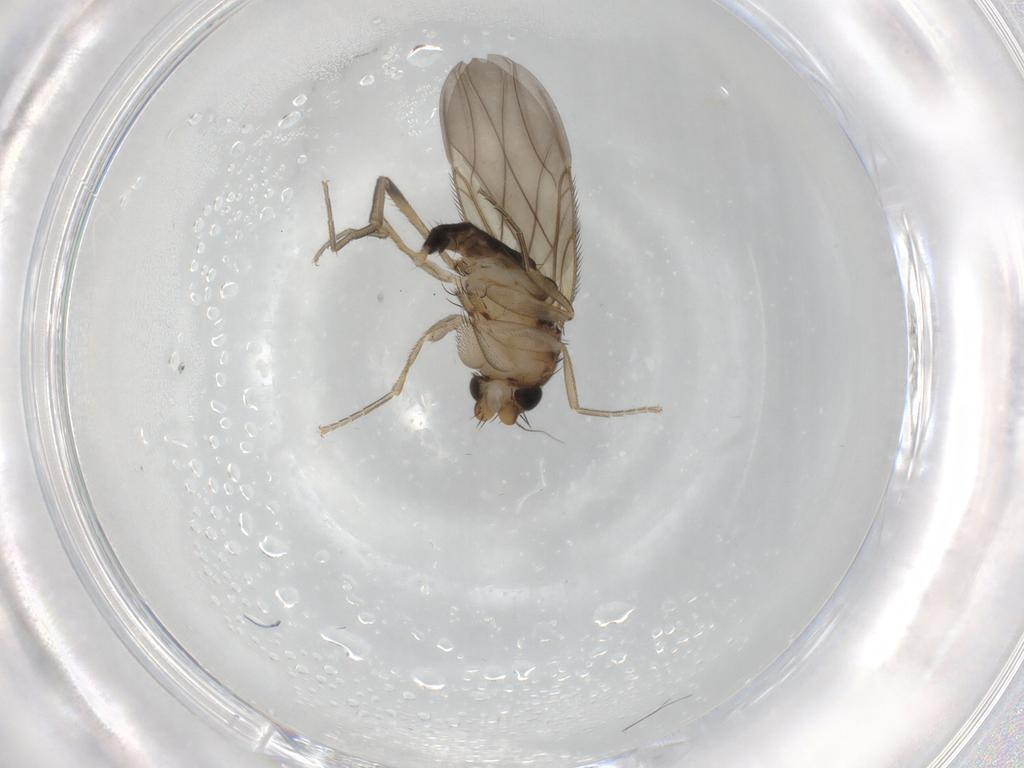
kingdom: Animalia
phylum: Arthropoda
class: Insecta
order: Diptera
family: Phoridae
